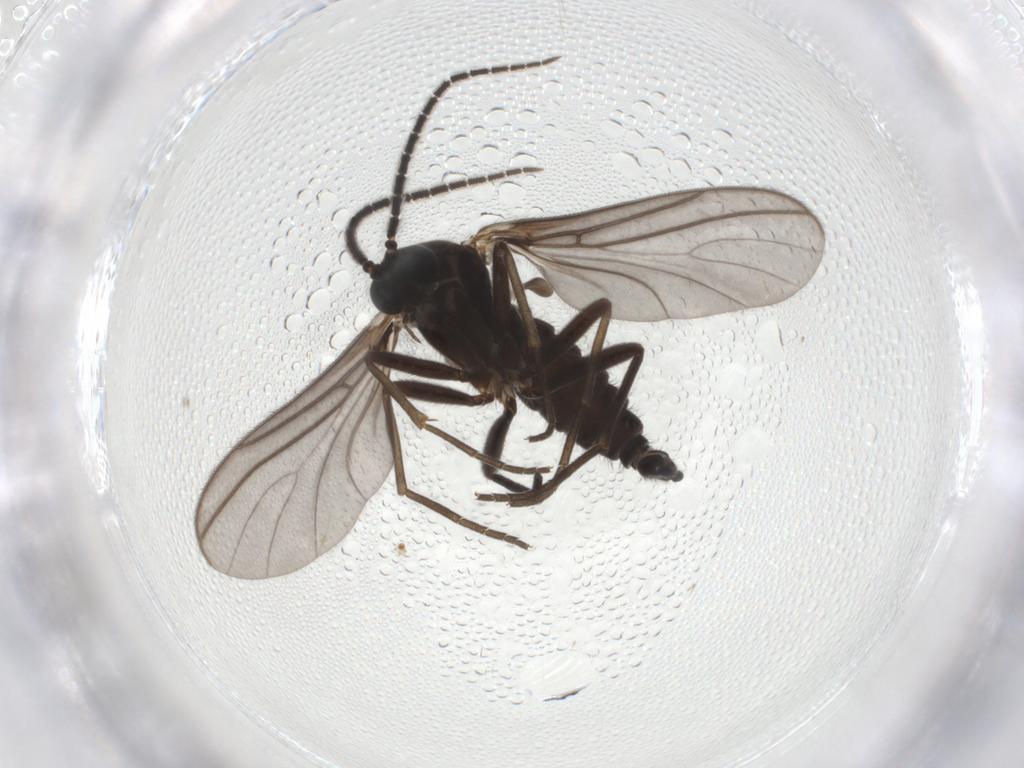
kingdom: Animalia
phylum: Arthropoda
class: Insecta
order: Diptera
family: Sciaridae
